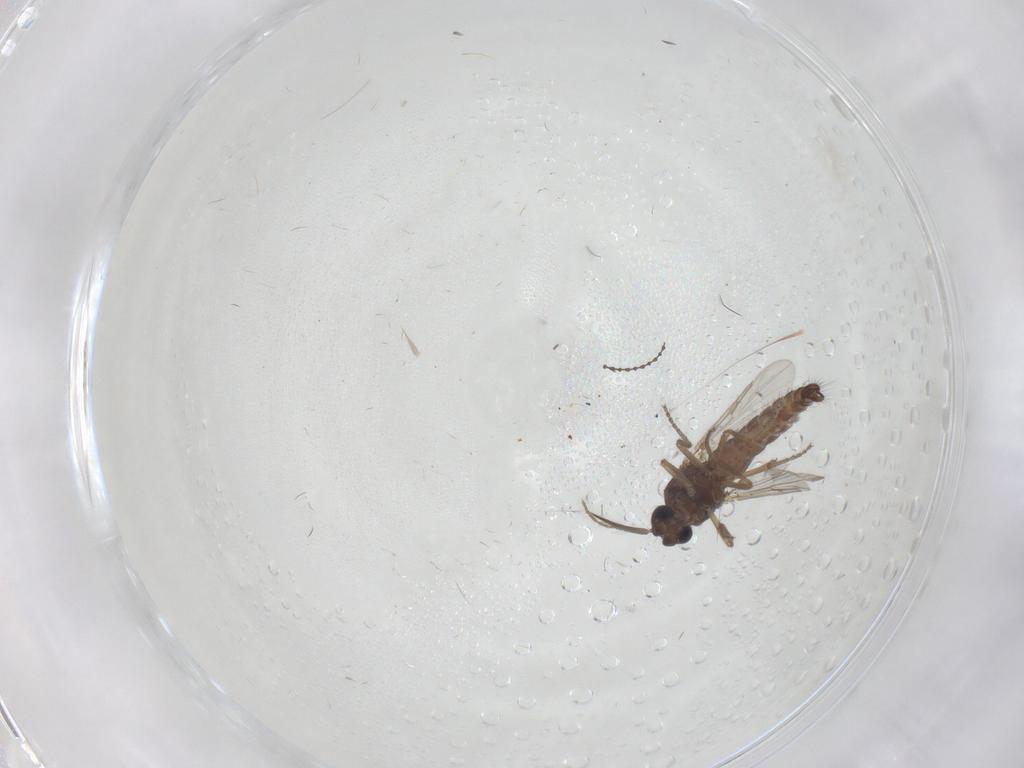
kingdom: Animalia
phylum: Arthropoda
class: Insecta
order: Diptera
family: Ceratopogonidae
